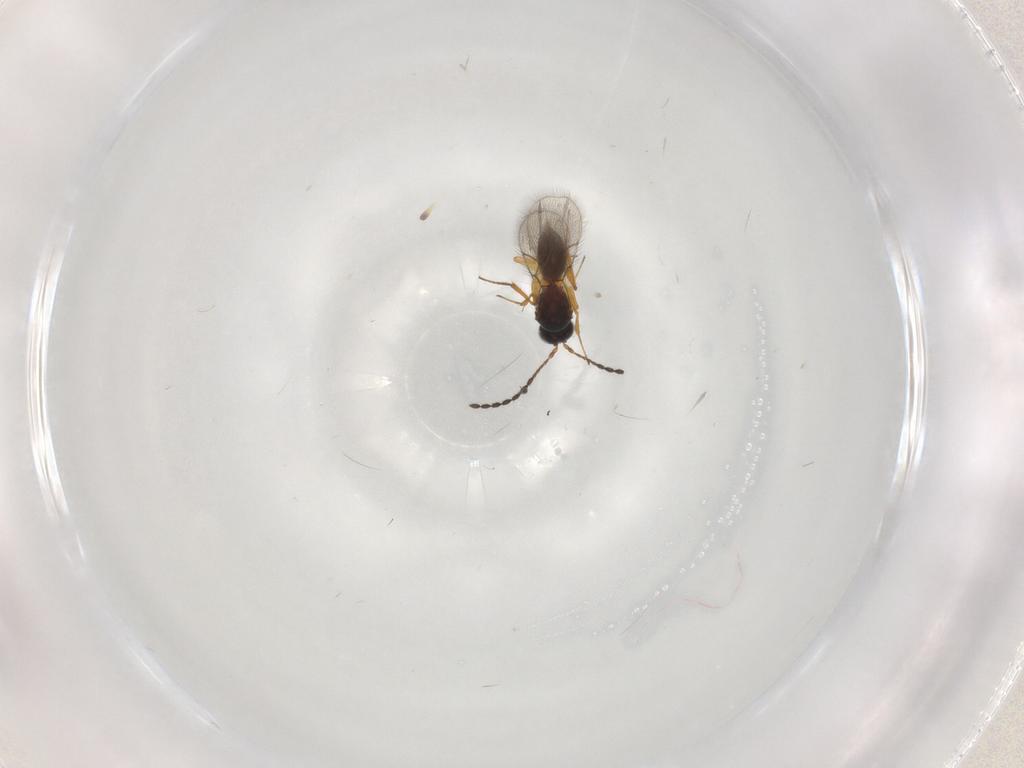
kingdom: Animalia
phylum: Arthropoda
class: Insecta
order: Hymenoptera
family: Figitidae
